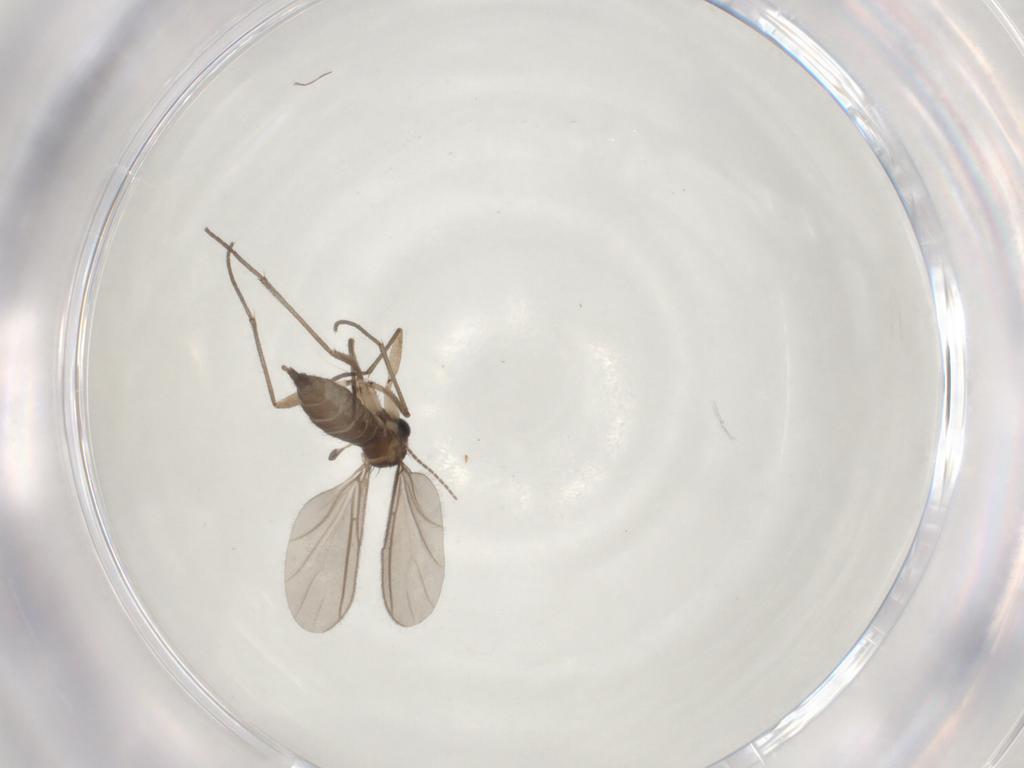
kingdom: Animalia
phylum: Arthropoda
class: Insecta
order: Diptera
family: Sciaridae
